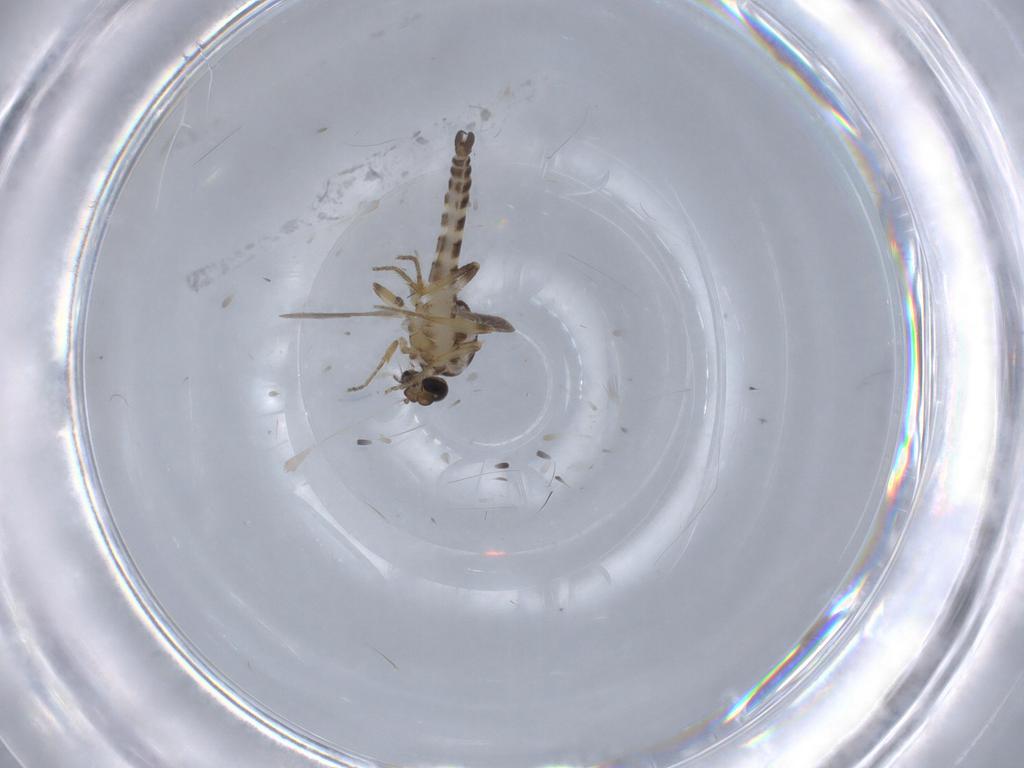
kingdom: Animalia
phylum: Arthropoda
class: Insecta
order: Diptera
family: Ceratopogonidae
